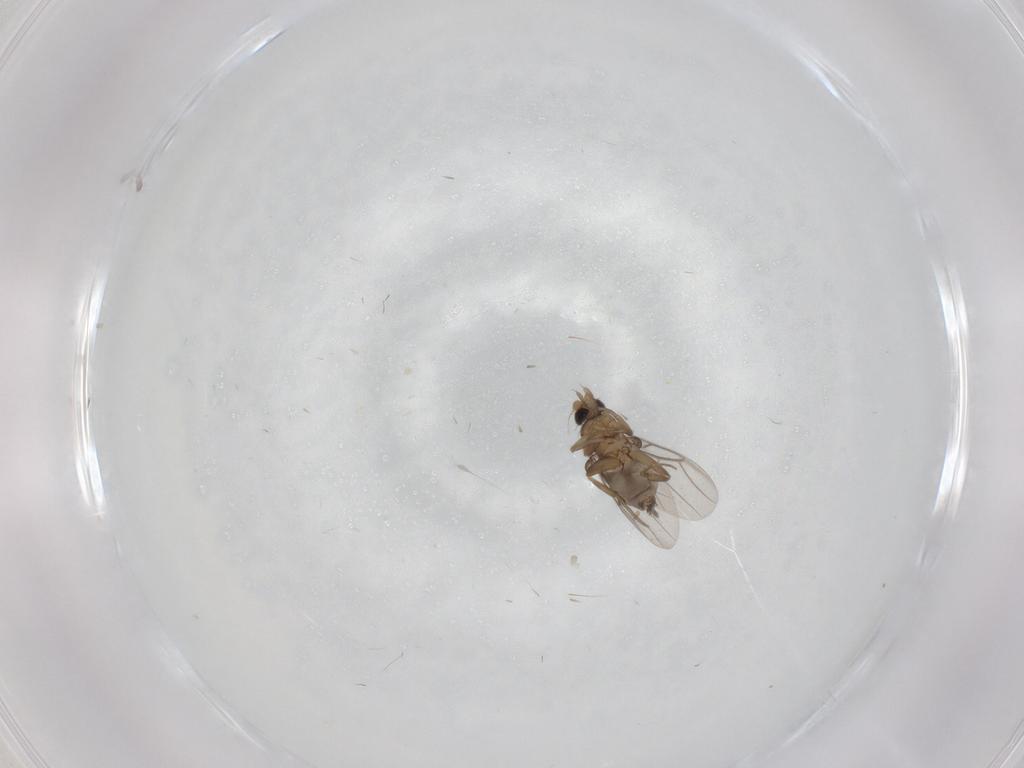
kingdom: Animalia
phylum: Arthropoda
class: Insecta
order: Diptera
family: Phoridae
